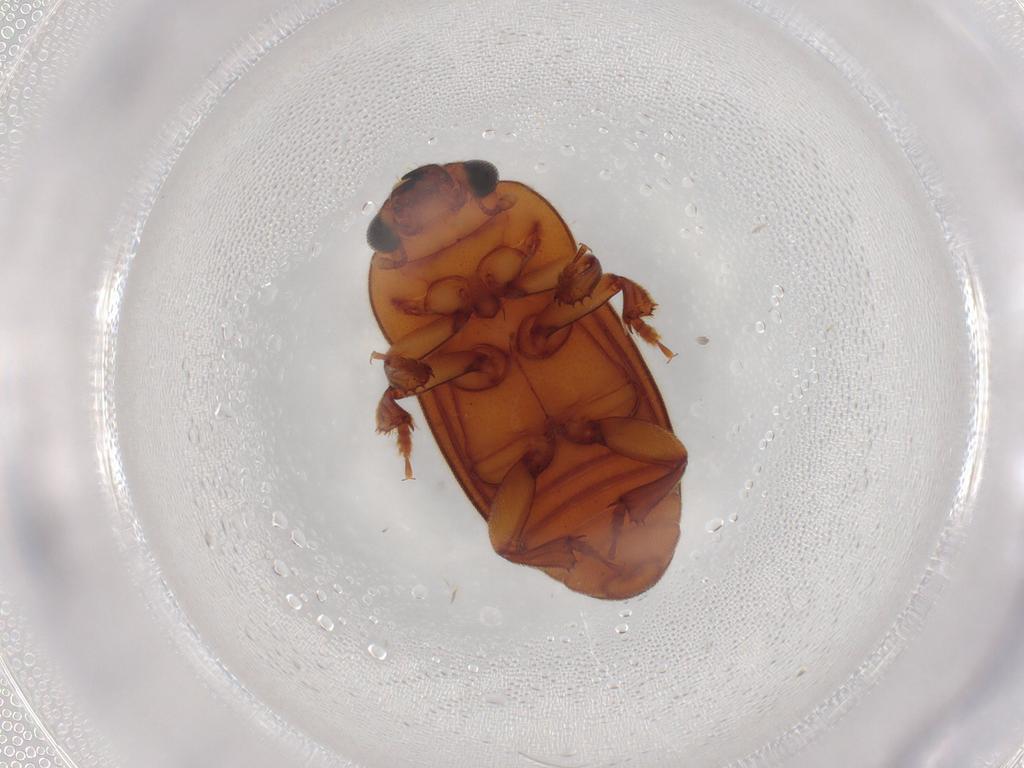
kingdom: Animalia
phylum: Arthropoda
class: Insecta
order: Coleoptera
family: Nitidulidae
